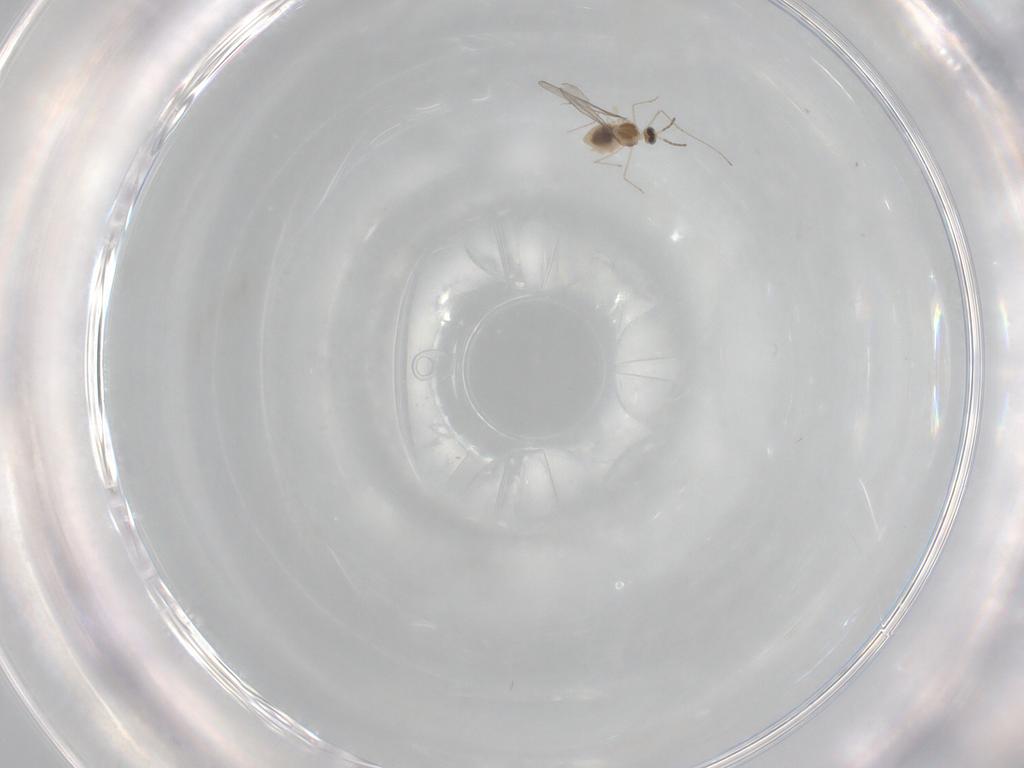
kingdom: Animalia
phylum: Arthropoda
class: Insecta
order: Diptera
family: Cecidomyiidae
